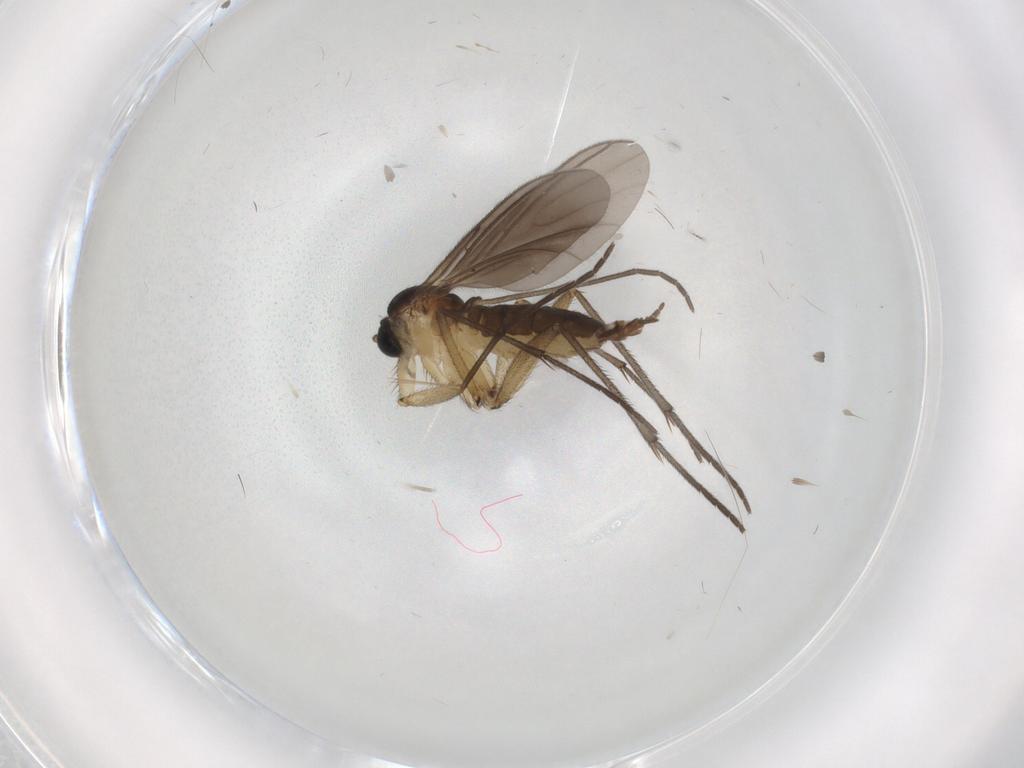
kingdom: Animalia
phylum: Arthropoda
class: Insecta
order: Diptera
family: Sciaridae
